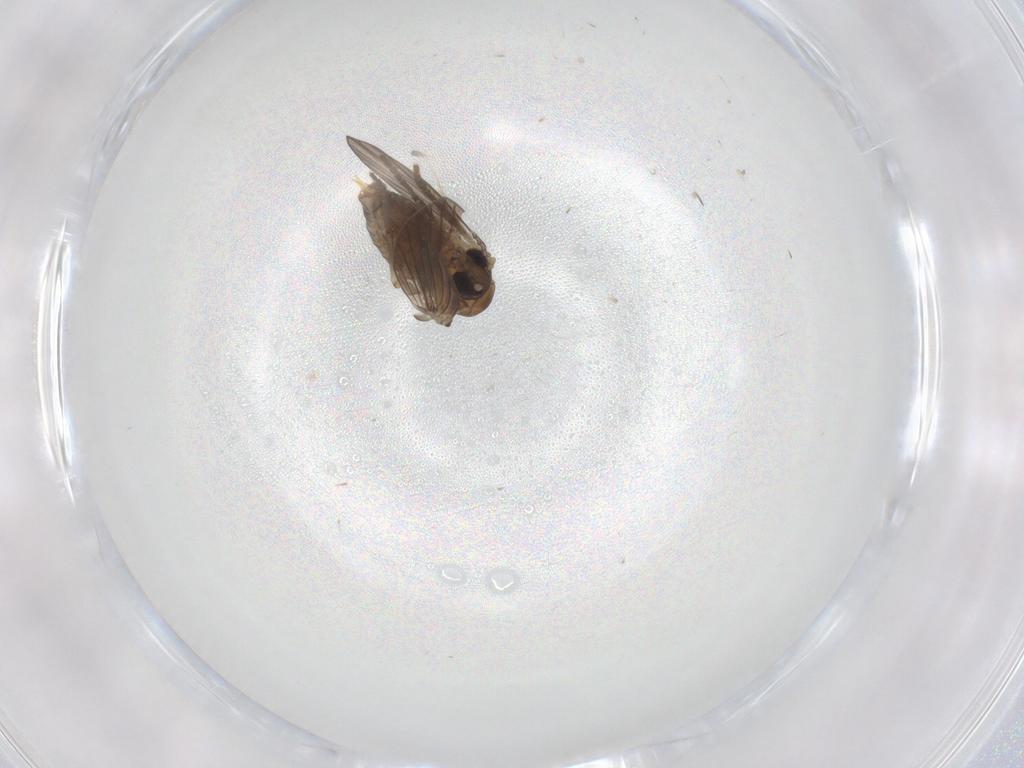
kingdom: Animalia
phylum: Arthropoda
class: Insecta
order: Diptera
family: Psychodidae
